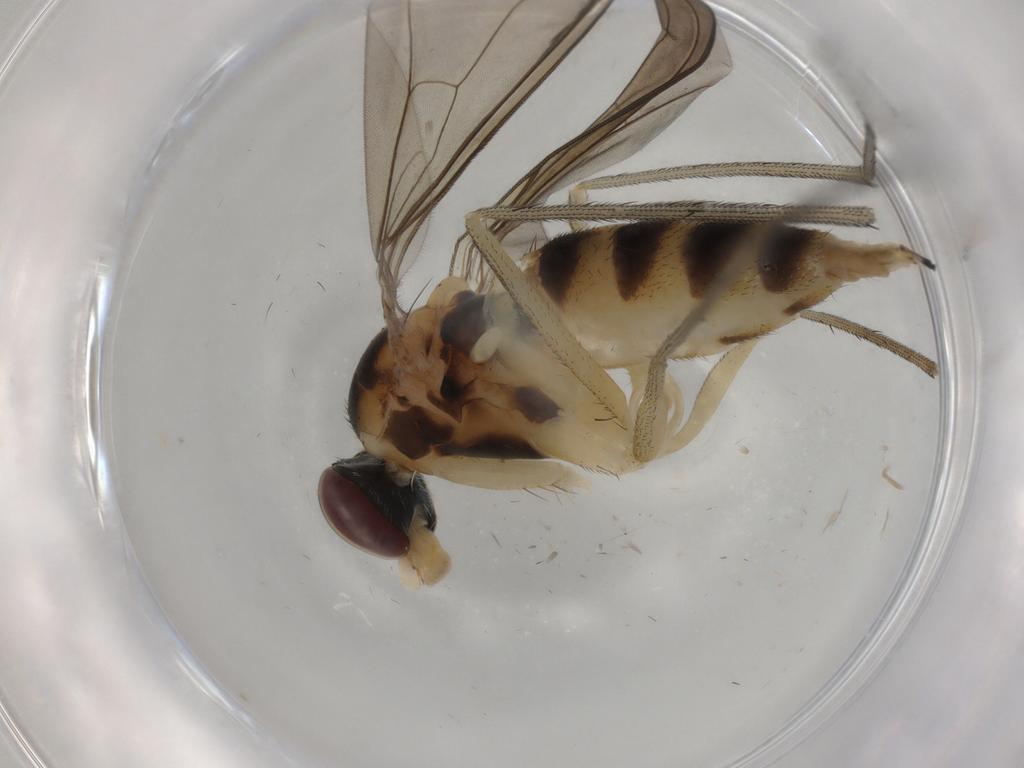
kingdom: Animalia
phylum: Arthropoda
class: Insecta
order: Diptera
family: Sciaridae
